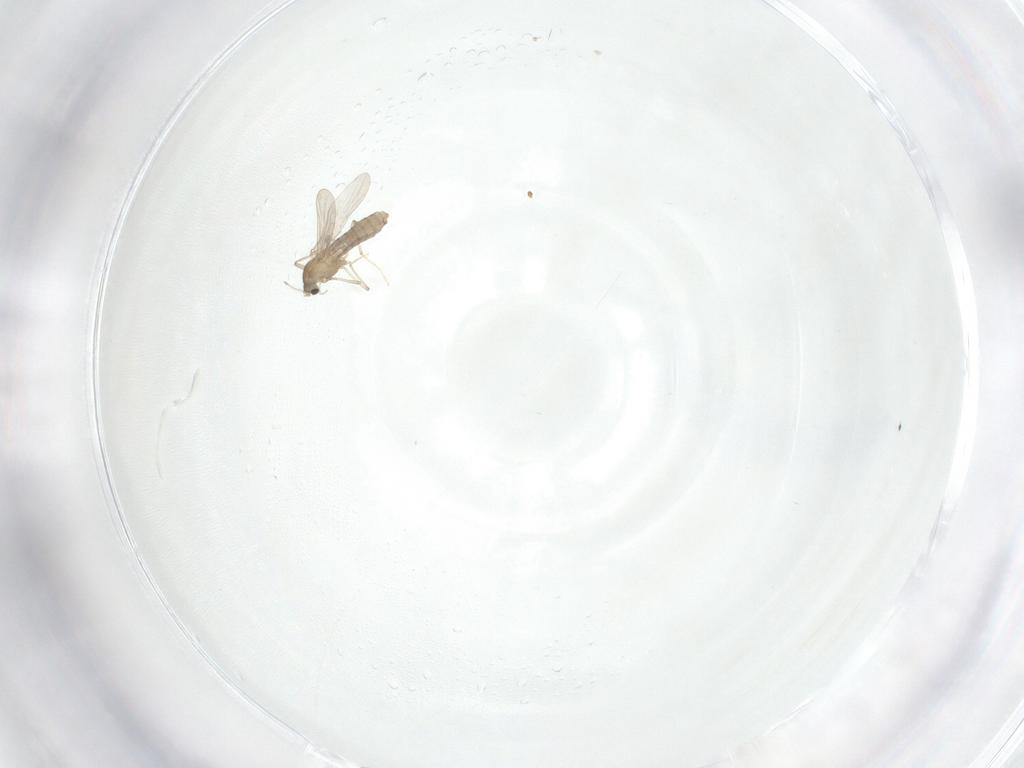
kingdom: Animalia
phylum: Arthropoda
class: Insecta
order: Diptera
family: Chironomidae
